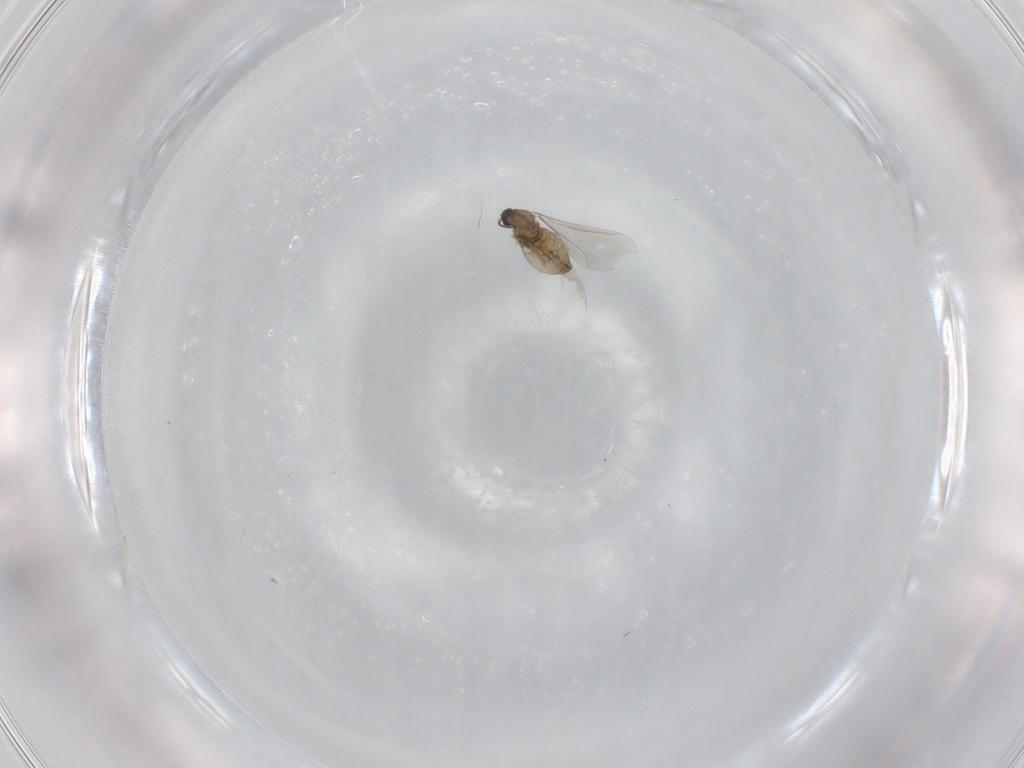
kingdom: Animalia
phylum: Arthropoda
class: Insecta
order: Diptera
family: Cecidomyiidae
